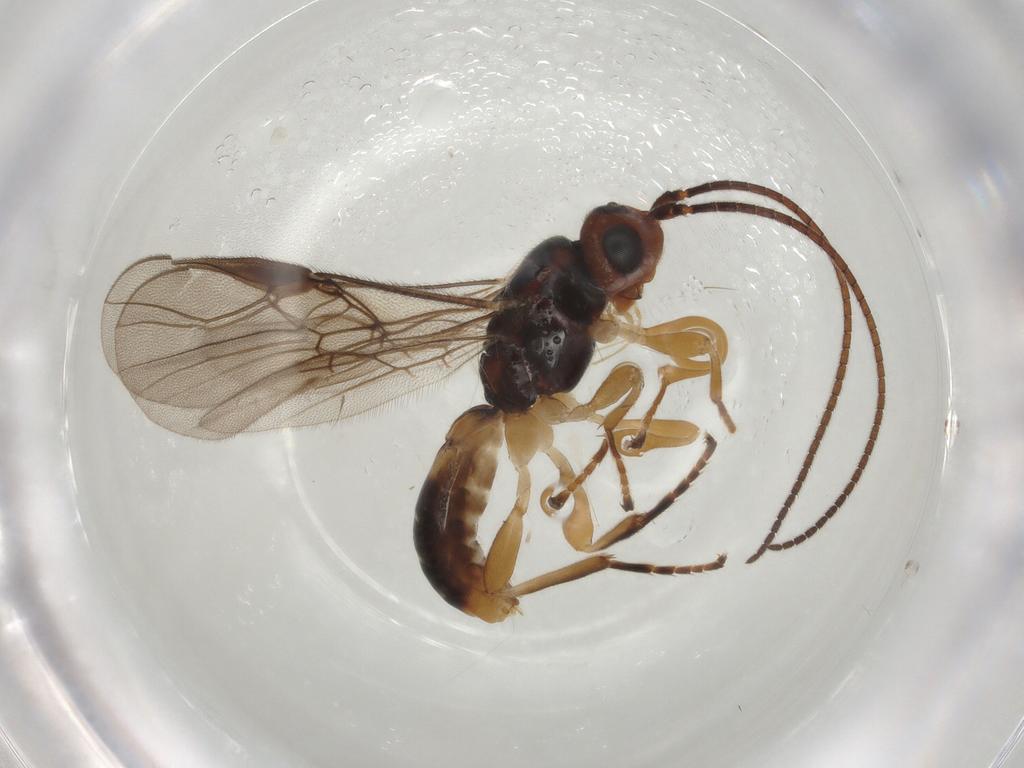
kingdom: Animalia
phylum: Arthropoda
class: Insecta
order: Hymenoptera
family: Braconidae
